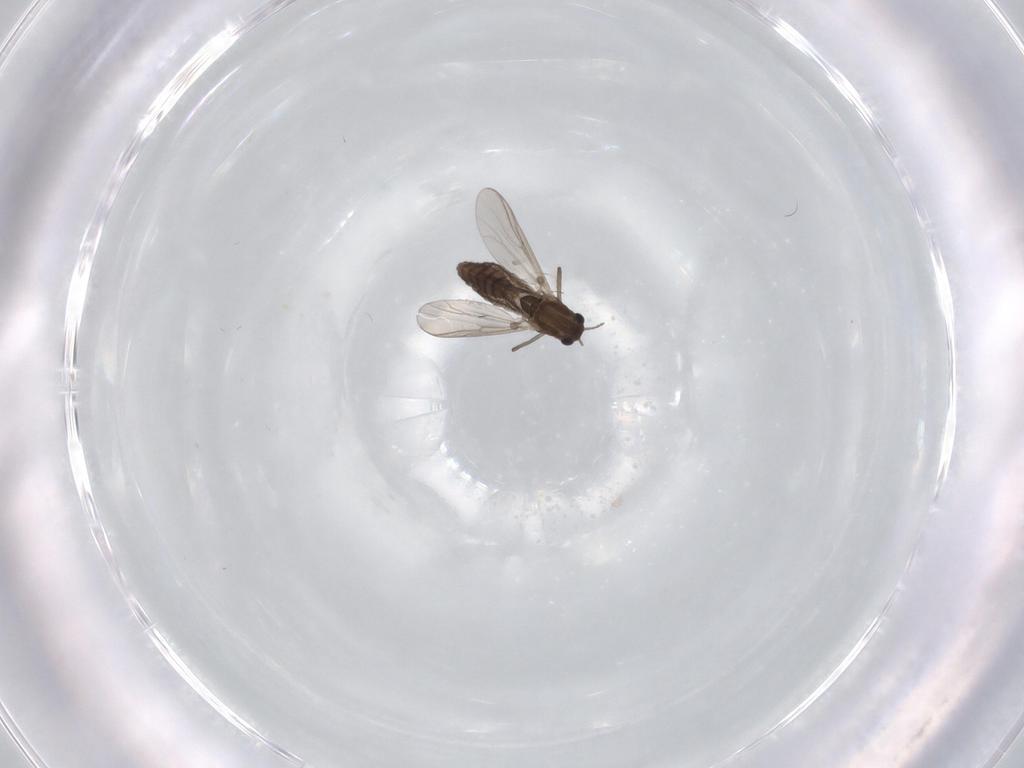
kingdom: Animalia
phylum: Arthropoda
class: Insecta
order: Diptera
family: Chironomidae
